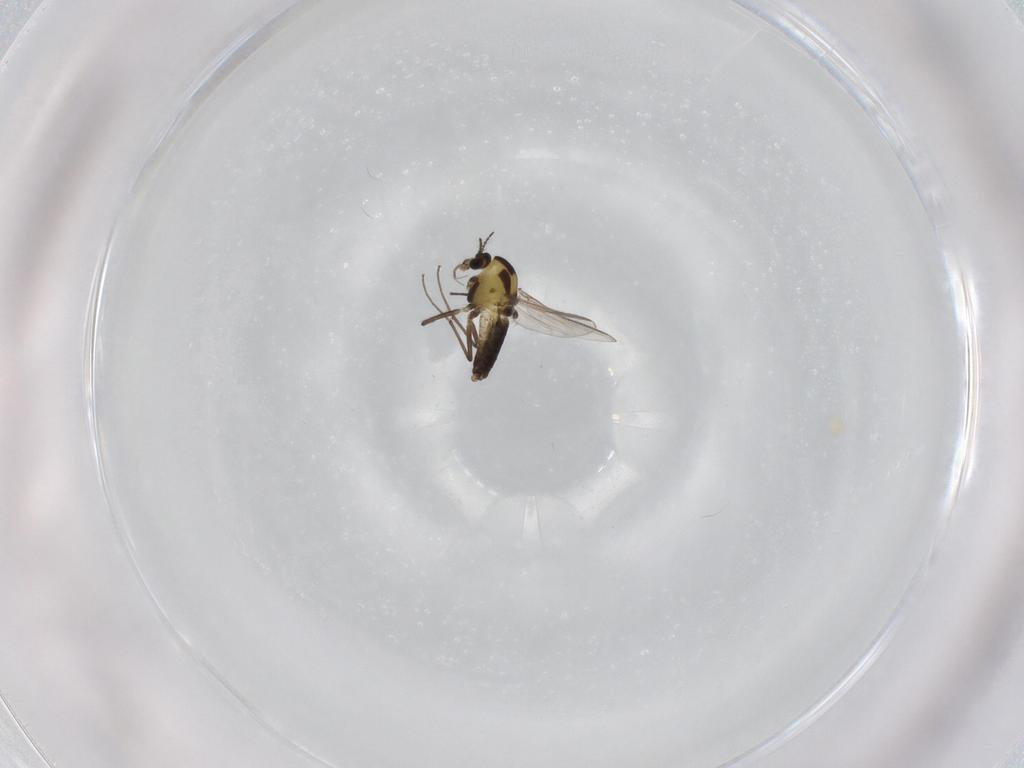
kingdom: Animalia
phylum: Arthropoda
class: Insecta
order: Diptera
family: Chironomidae
